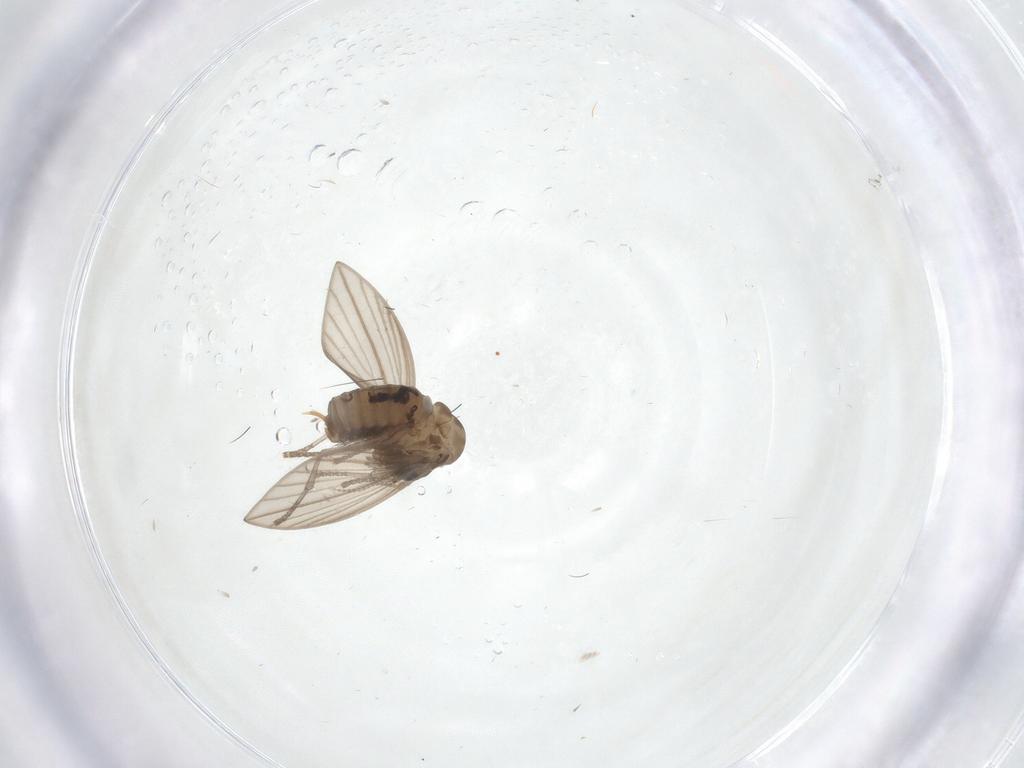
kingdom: Animalia
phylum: Arthropoda
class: Insecta
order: Diptera
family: Psychodidae
